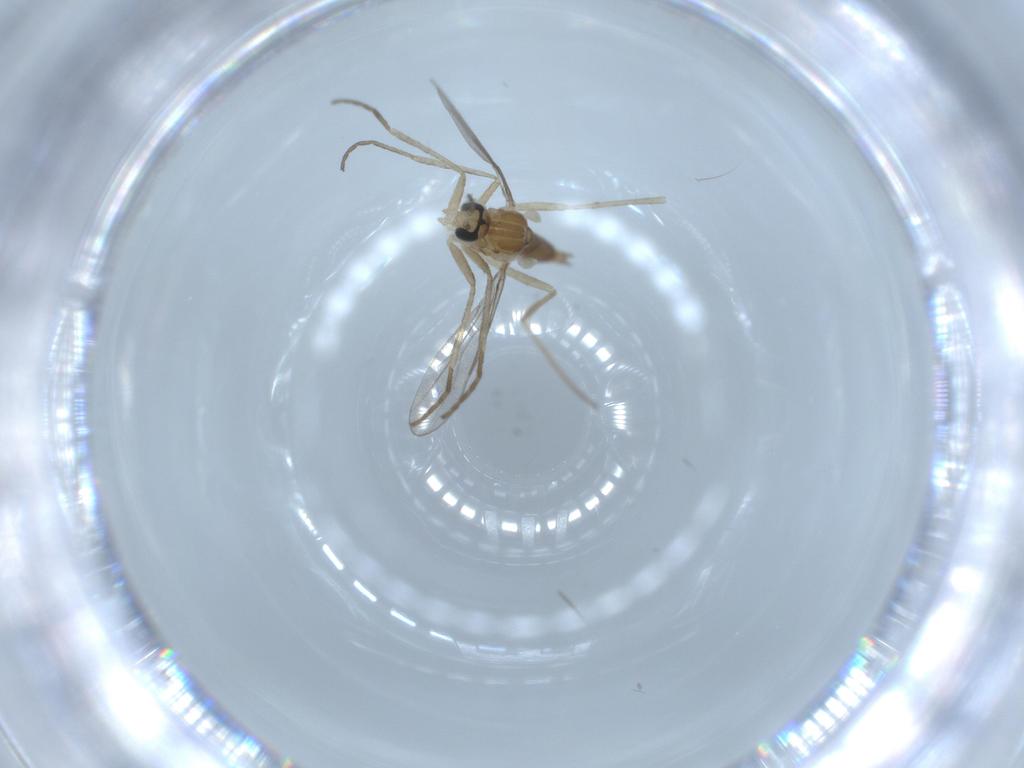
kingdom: Animalia
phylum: Arthropoda
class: Insecta
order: Diptera
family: Cecidomyiidae
